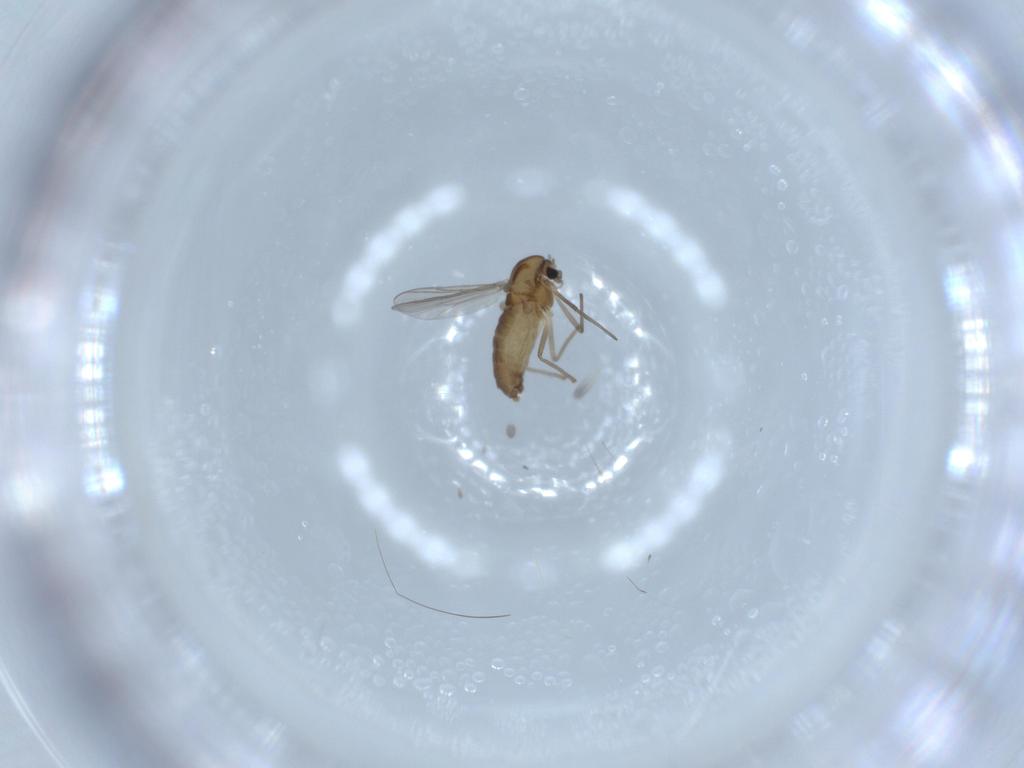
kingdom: Animalia
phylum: Arthropoda
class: Insecta
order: Diptera
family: Chironomidae
